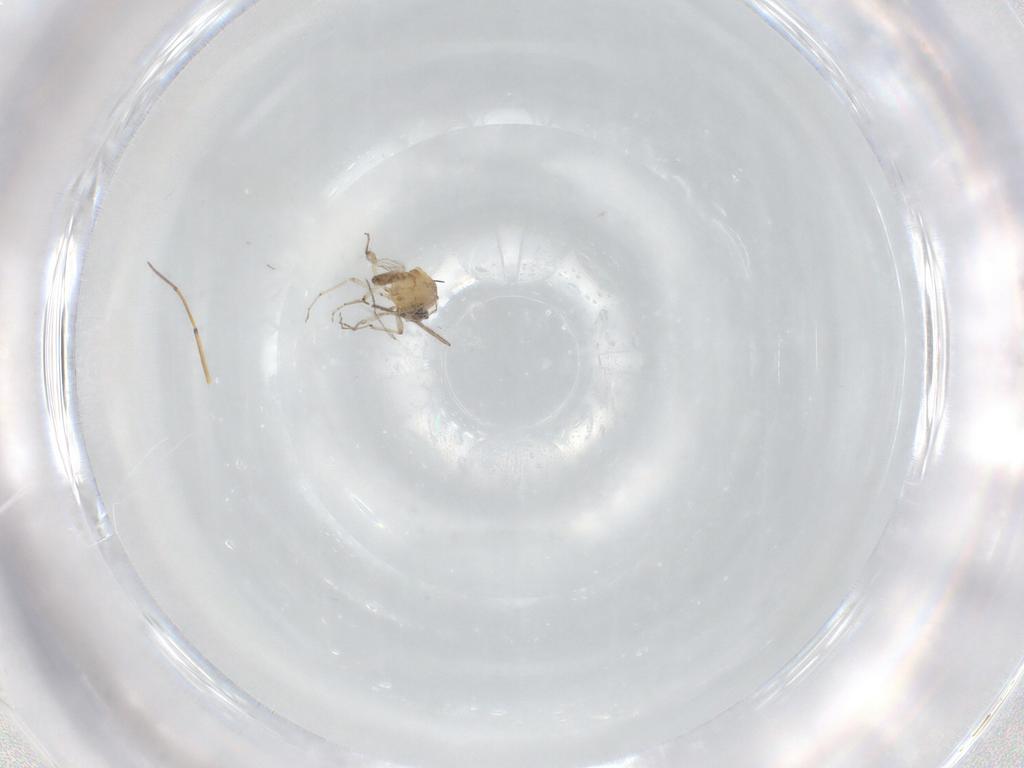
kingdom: Animalia
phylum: Arthropoda
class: Insecta
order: Diptera
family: Ceratopogonidae
